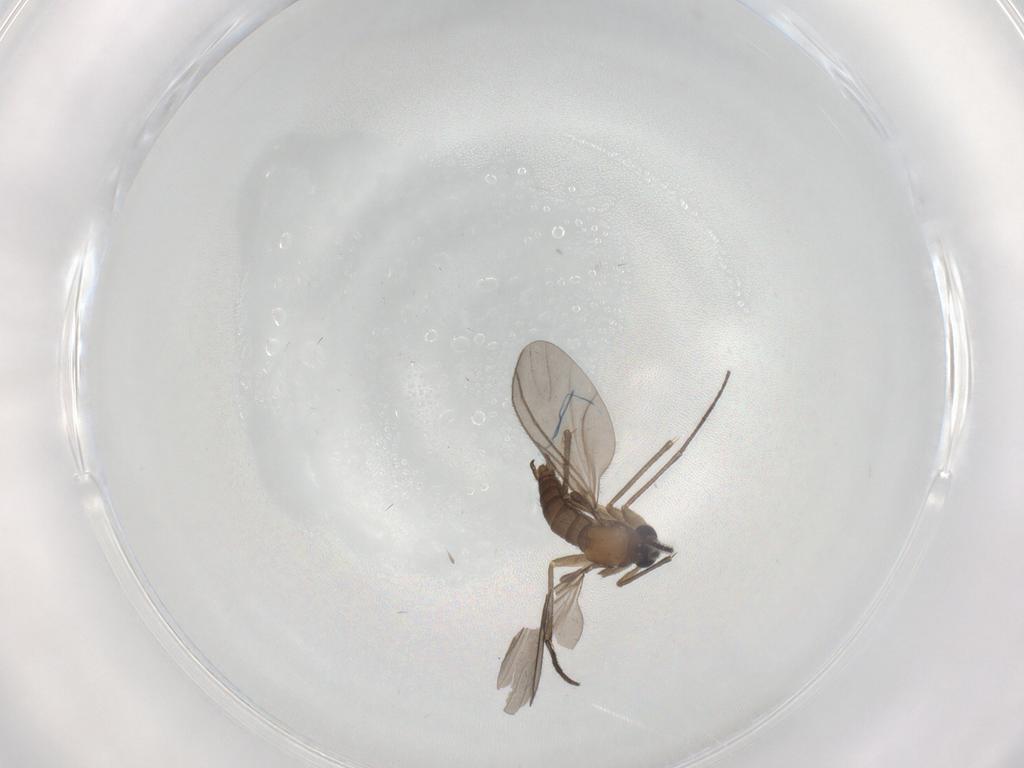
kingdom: Animalia
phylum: Arthropoda
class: Insecta
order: Diptera
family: Sciaridae
